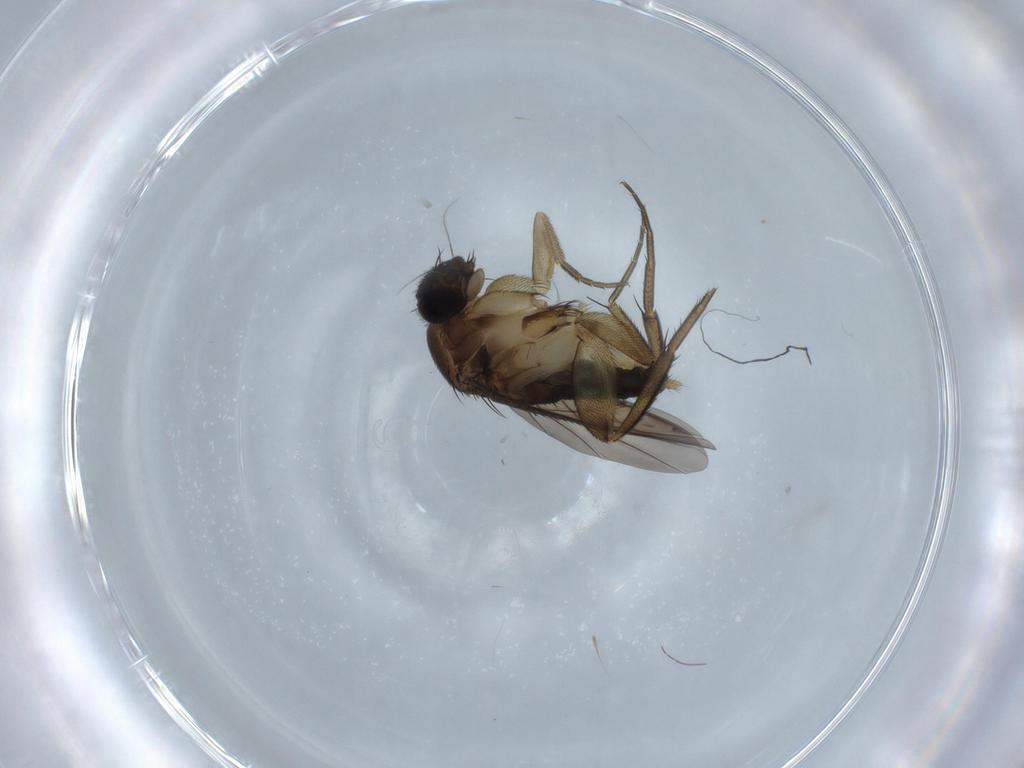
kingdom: Animalia
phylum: Arthropoda
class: Insecta
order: Diptera
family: Phoridae
